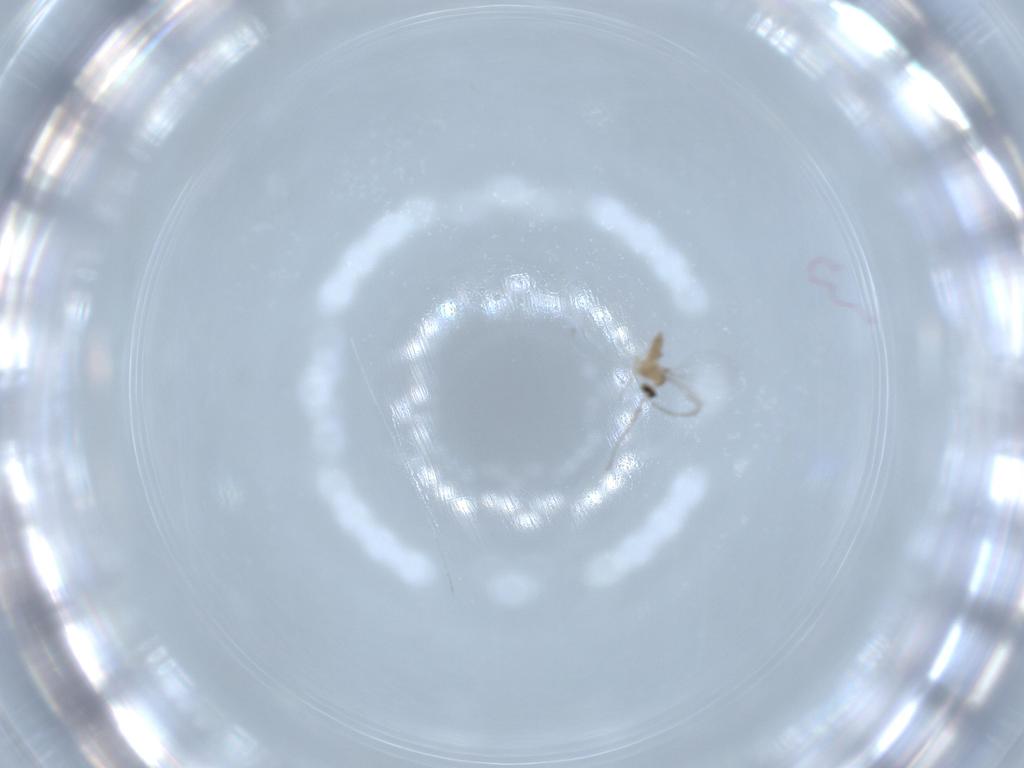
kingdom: Animalia
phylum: Arthropoda
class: Insecta
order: Diptera
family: Cecidomyiidae
